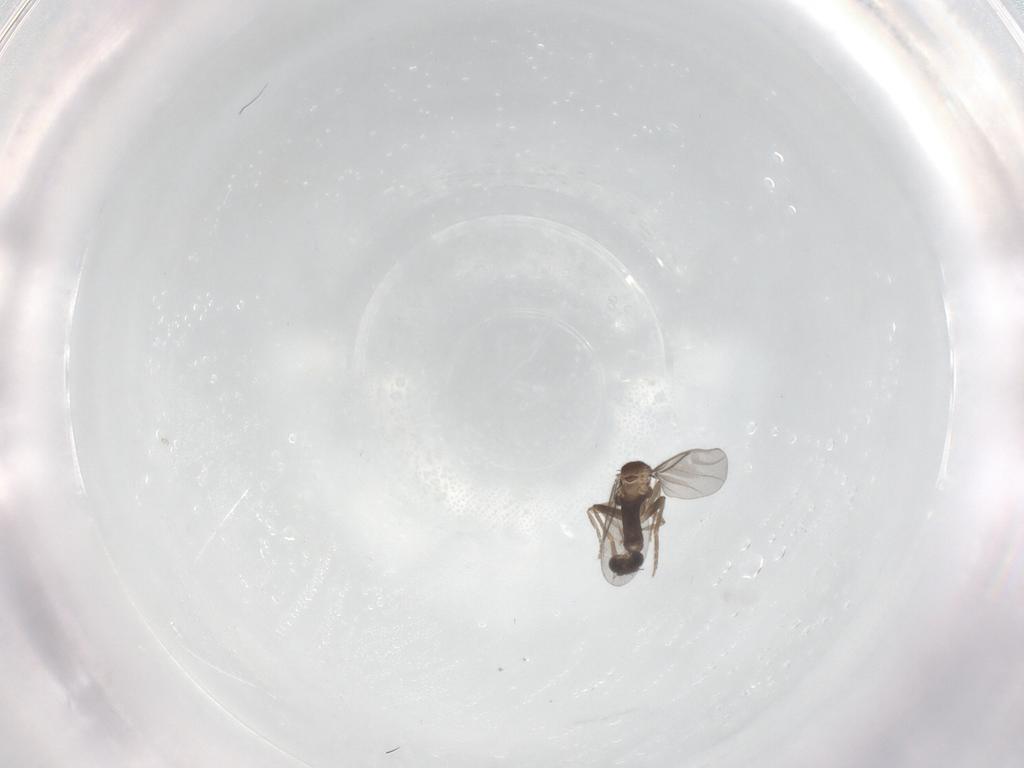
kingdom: Animalia
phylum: Arthropoda
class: Insecta
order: Diptera
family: Dolichopodidae
